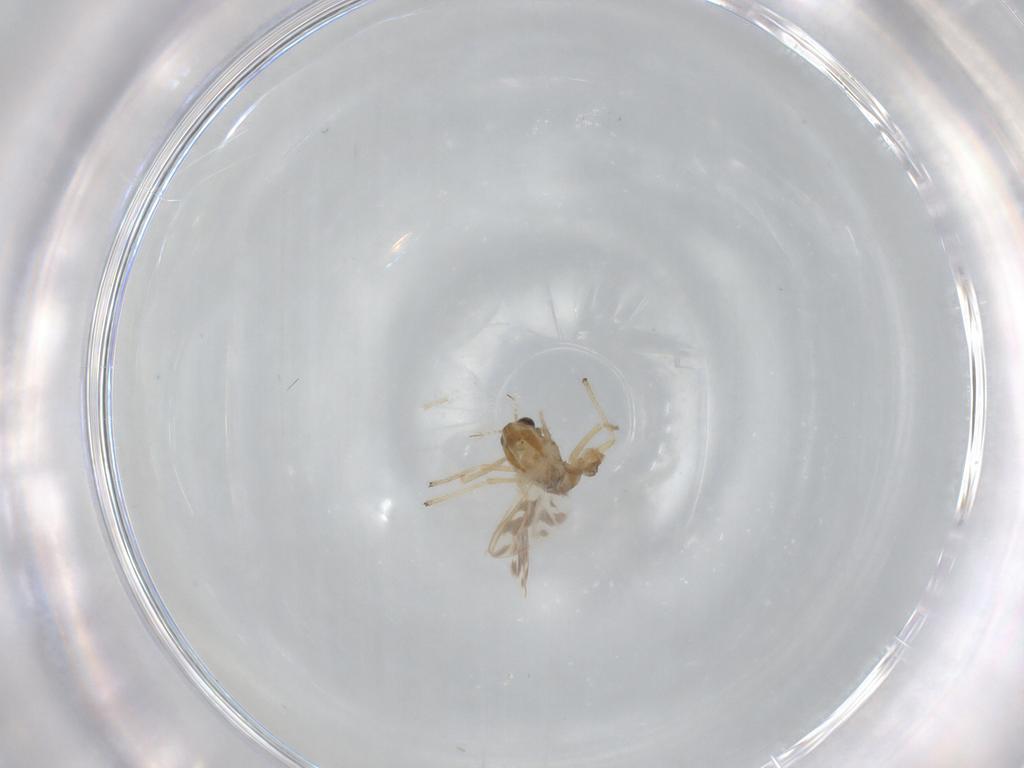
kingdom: Animalia
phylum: Arthropoda
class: Insecta
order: Diptera
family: Chironomidae
